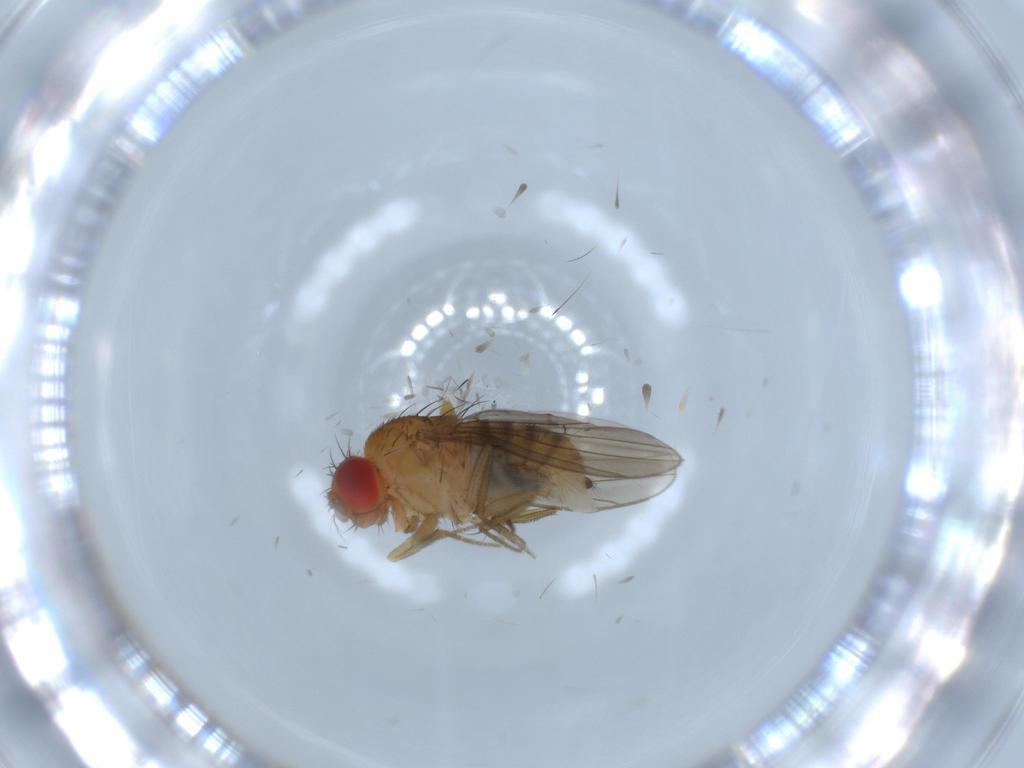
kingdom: Animalia
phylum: Arthropoda
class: Insecta
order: Diptera
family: Drosophilidae
